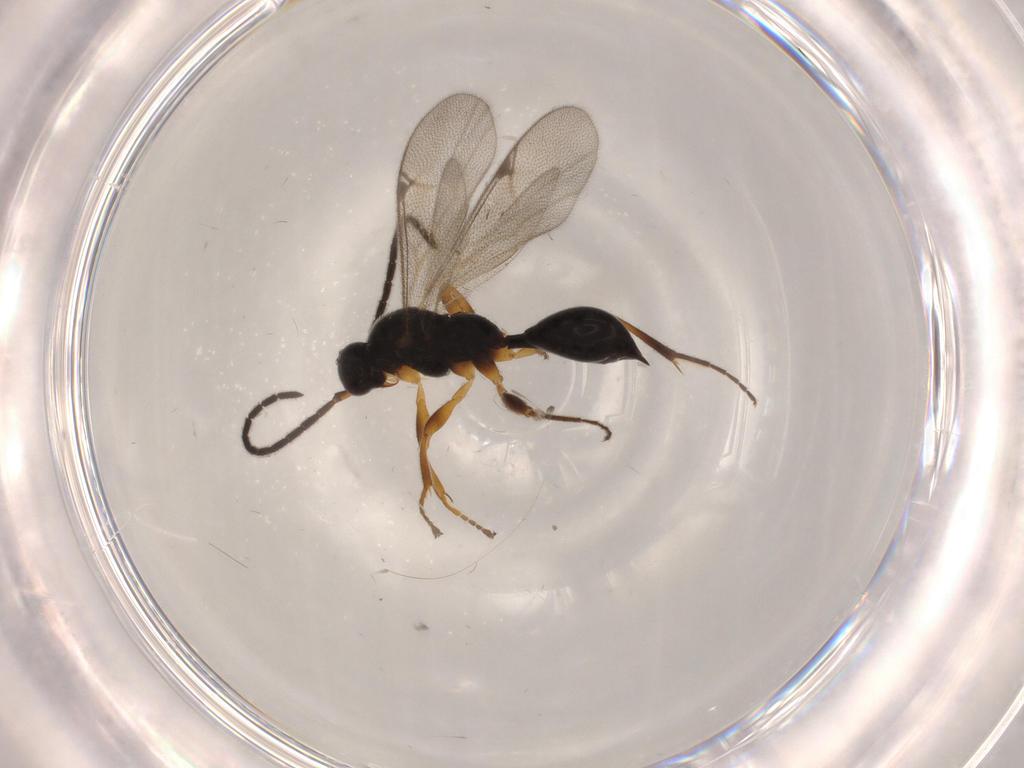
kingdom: Animalia
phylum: Arthropoda
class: Insecta
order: Hymenoptera
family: Proctotrupidae
